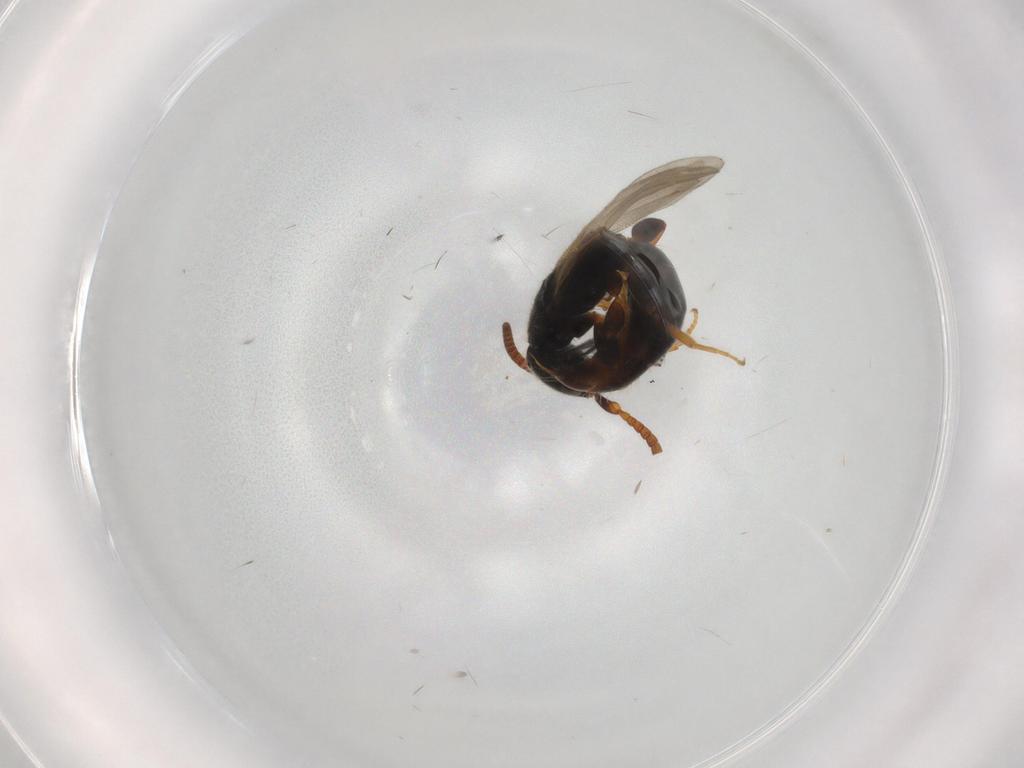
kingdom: Animalia
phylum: Arthropoda
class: Insecta
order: Hymenoptera
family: Bethylidae
